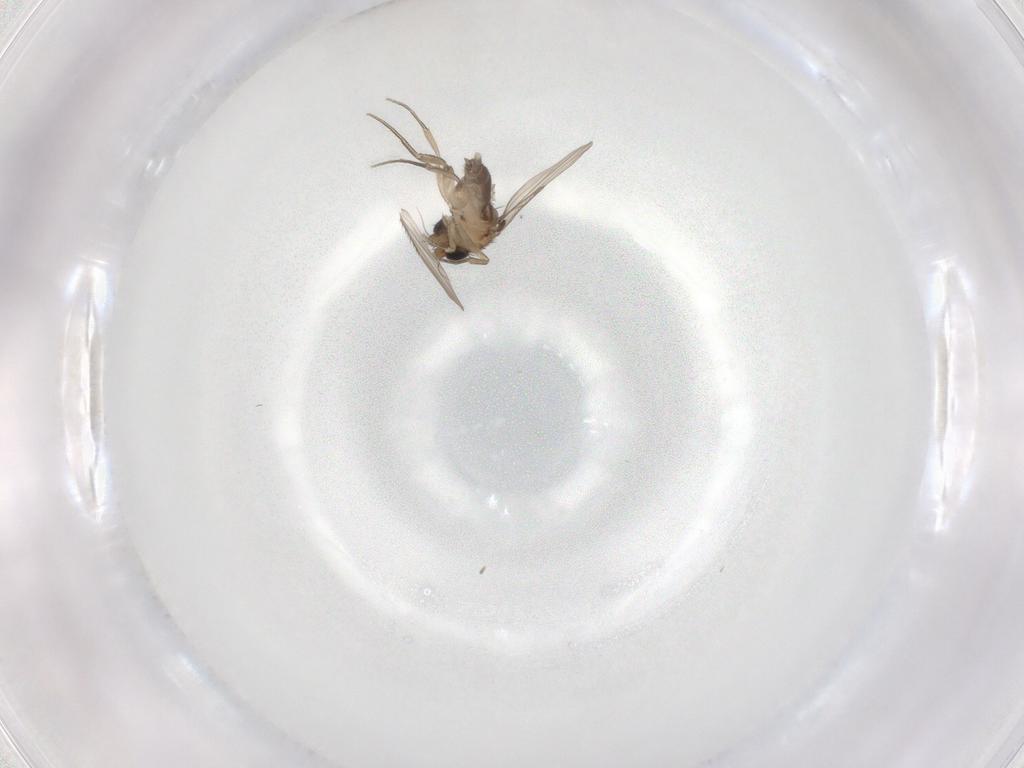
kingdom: Animalia
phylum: Arthropoda
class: Insecta
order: Diptera
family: Phoridae
